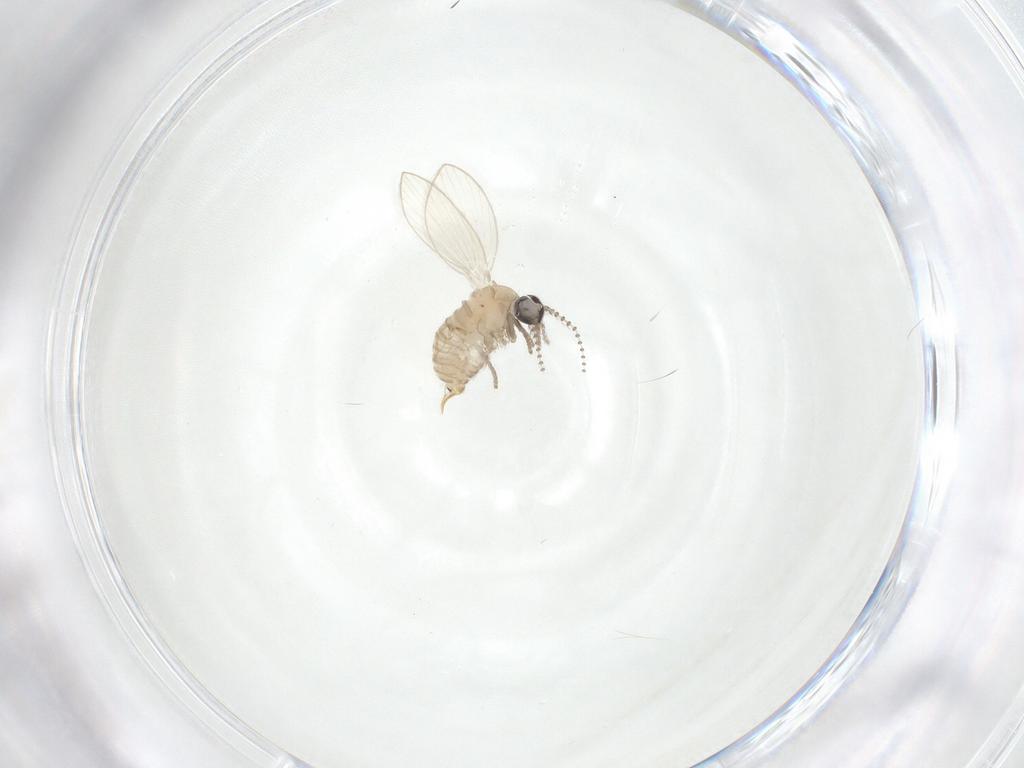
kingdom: Animalia
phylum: Arthropoda
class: Insecta
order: Diptera
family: Psychodidae
